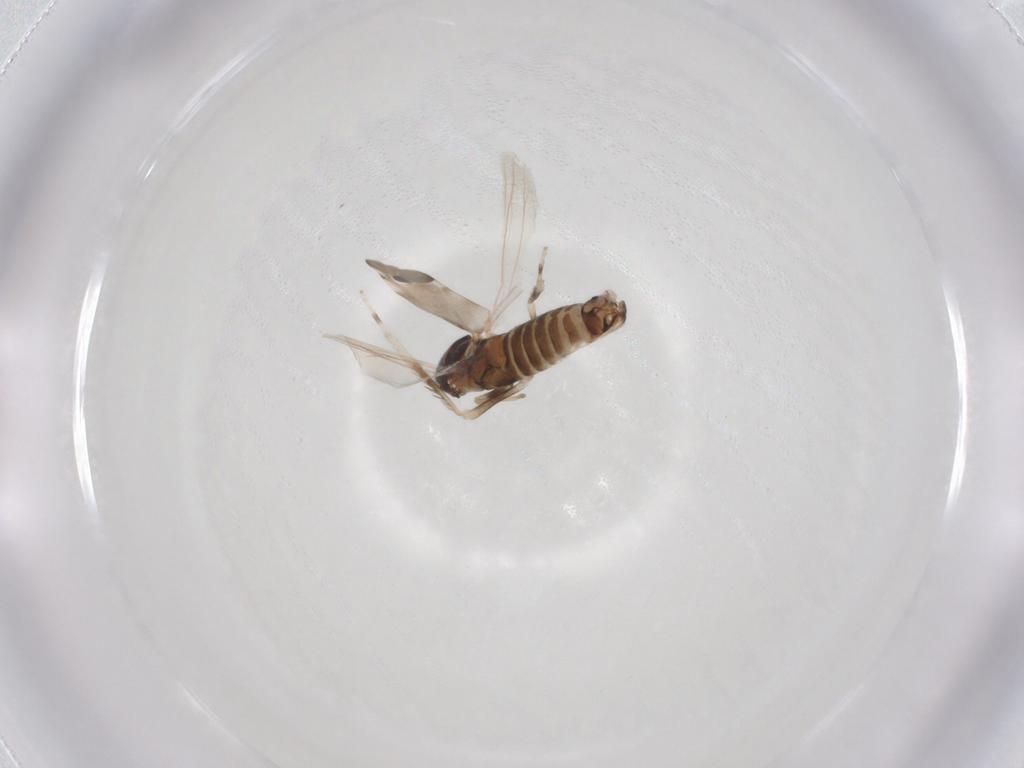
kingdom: Animalia
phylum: Arthropoda
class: Insecta
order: Hemiptera
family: Cicadellidae
